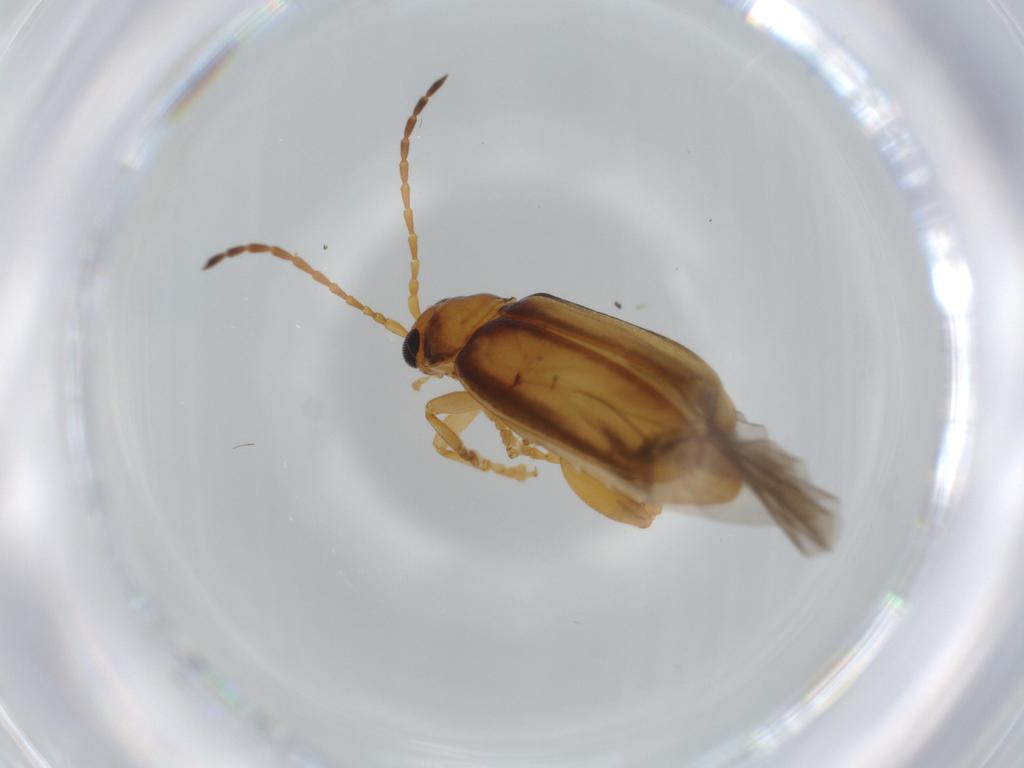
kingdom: Animalia
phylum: Arthropoda
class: Insecta
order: Coleoptera
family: Chrysomelidae
